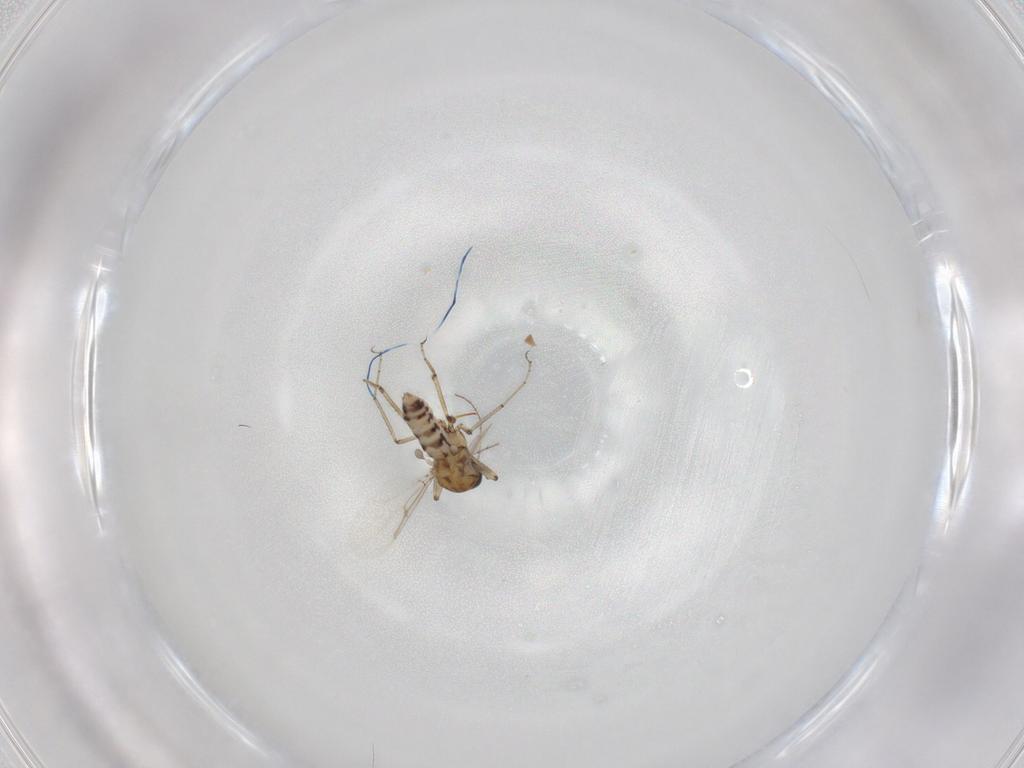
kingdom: Animalia
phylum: Arthropoda
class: Insecta
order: Diptera
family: Ceratopogonidae
